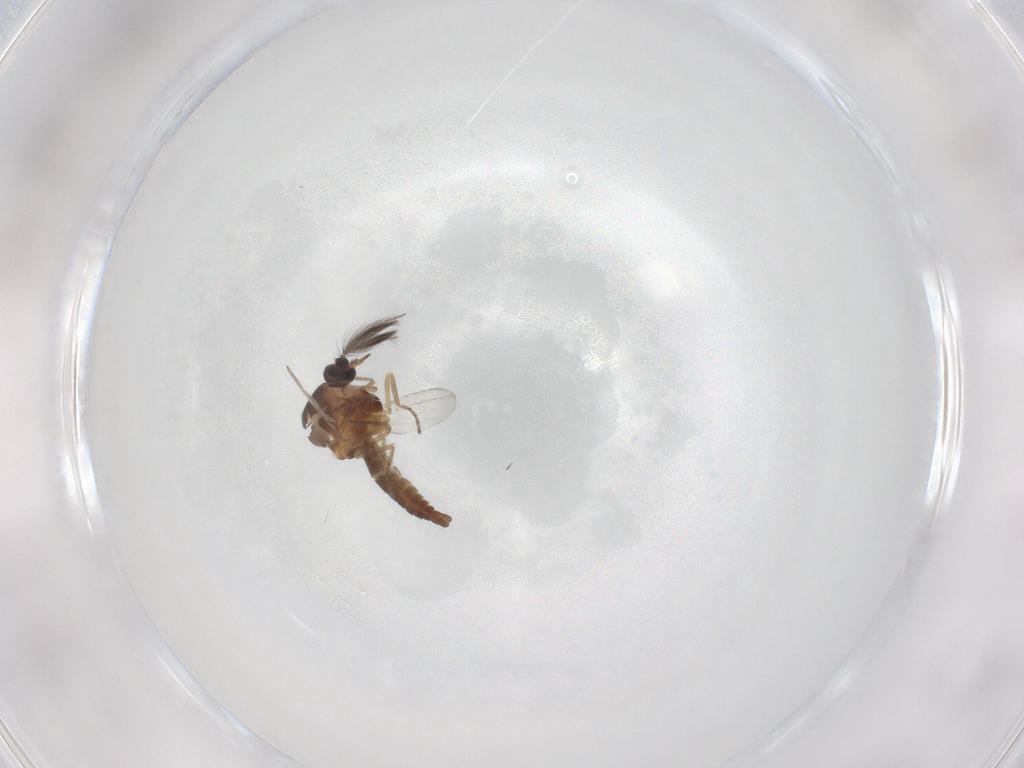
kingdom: Animalia
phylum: Arthropoda
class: Insecta
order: Diptera
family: Ceratopogonidae
